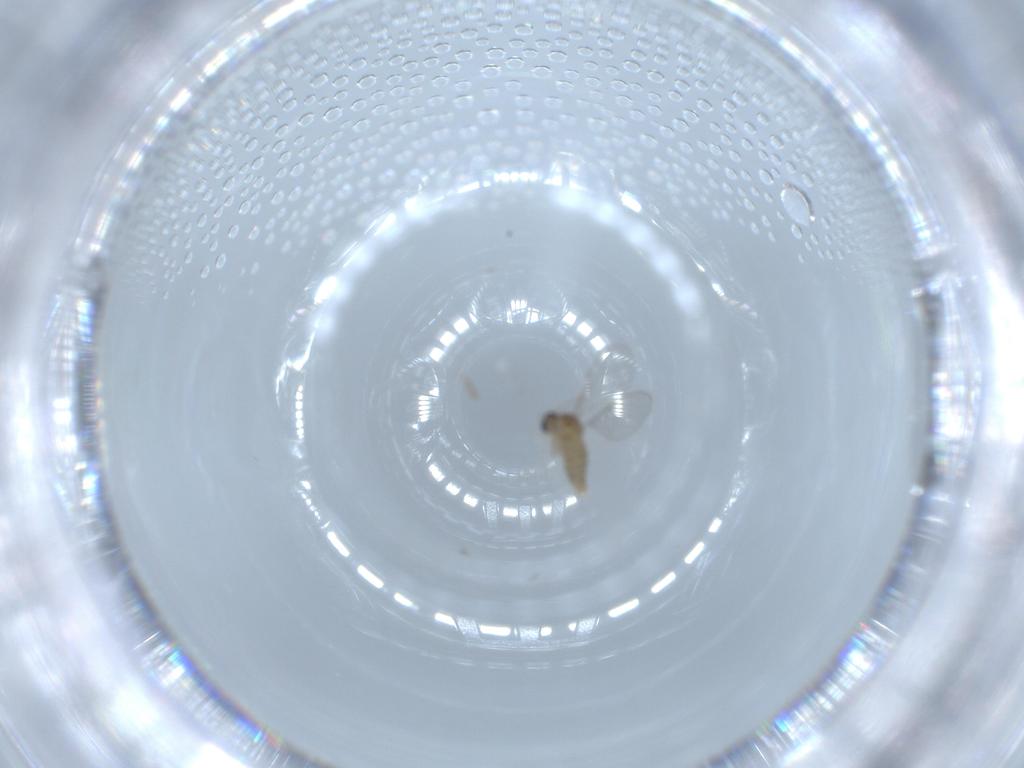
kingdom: Animalia
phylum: Arthropoda
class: Insecta
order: Diptera
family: Cecidomyiidae
